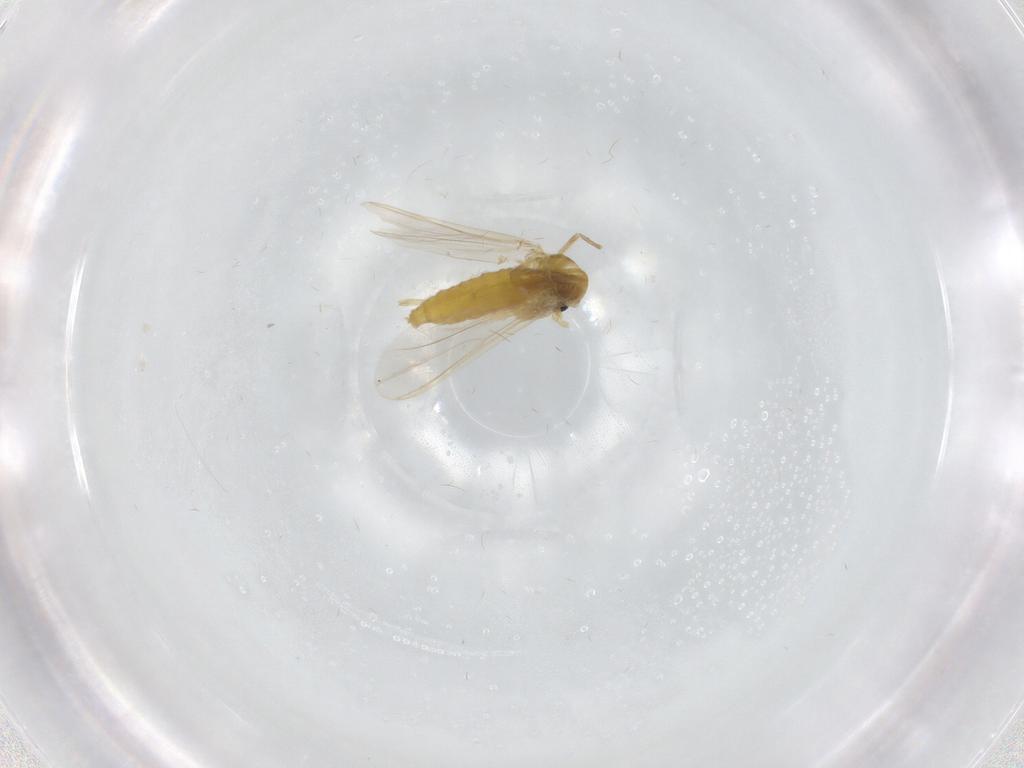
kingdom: Animalia
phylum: Arthropoda
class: Insecta
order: Diptera
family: Chironomidae
